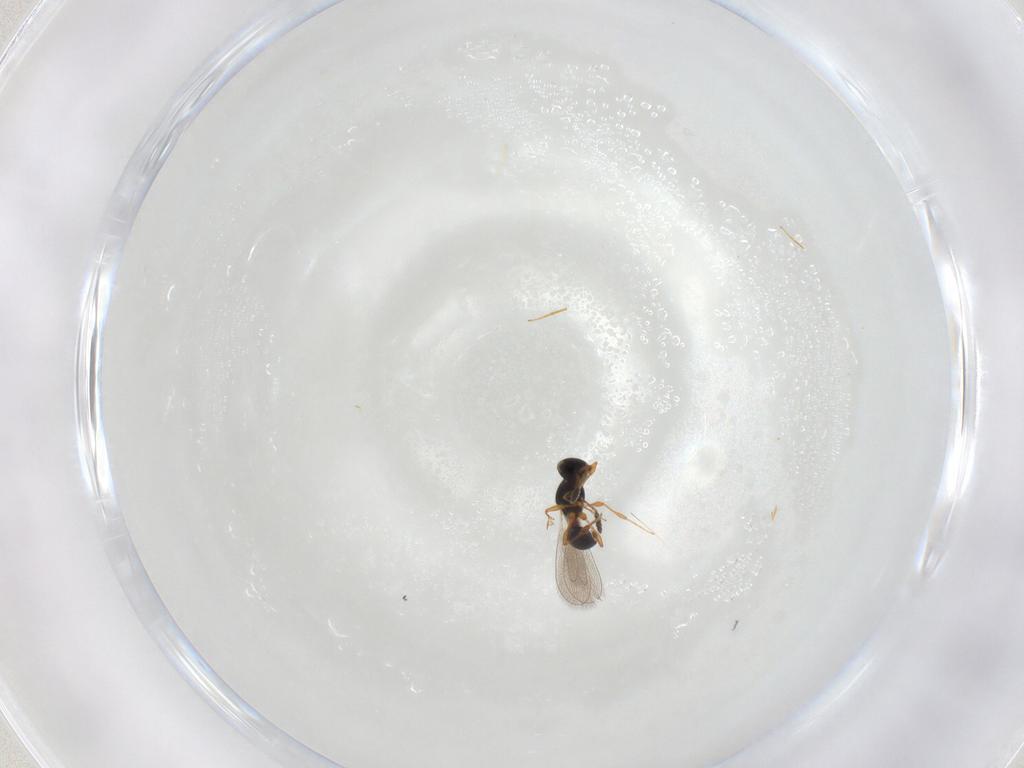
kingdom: Animalia
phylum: Arthropoda
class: Insecta
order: Hymenoptera
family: Platygastridae
